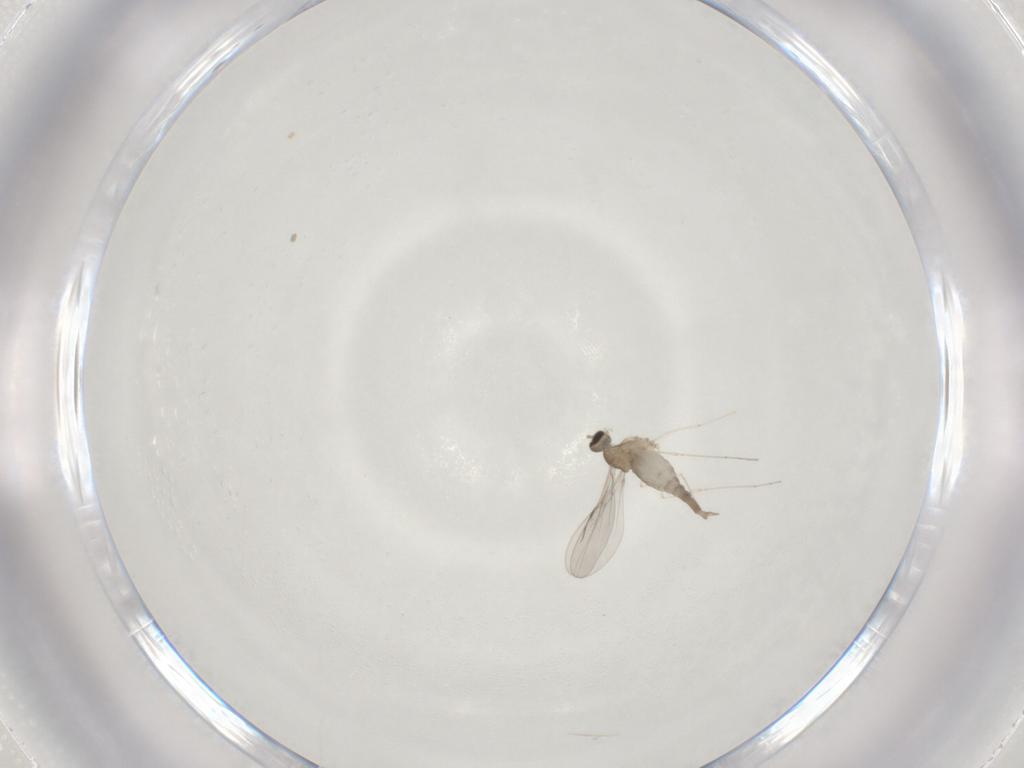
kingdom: Animalia
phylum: Arthropoda
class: Insecta
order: Diptera
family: Cecidomyiidae
